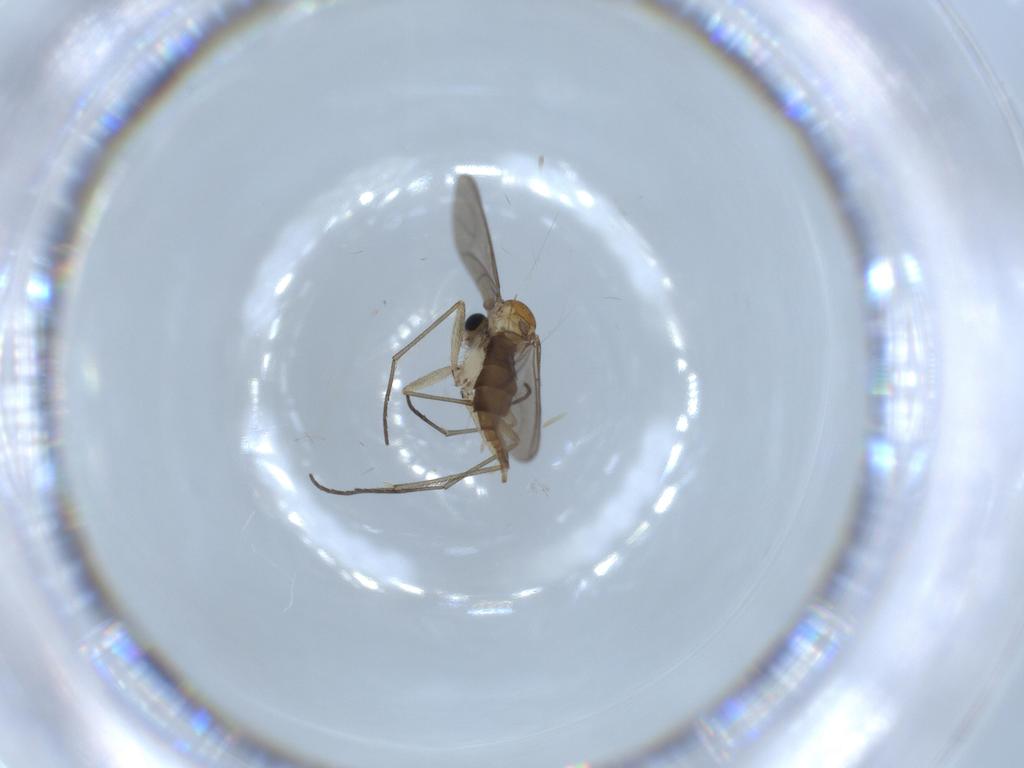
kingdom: Animalia
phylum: Arthropoda
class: Insecta
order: Diptera
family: Sciaridae
